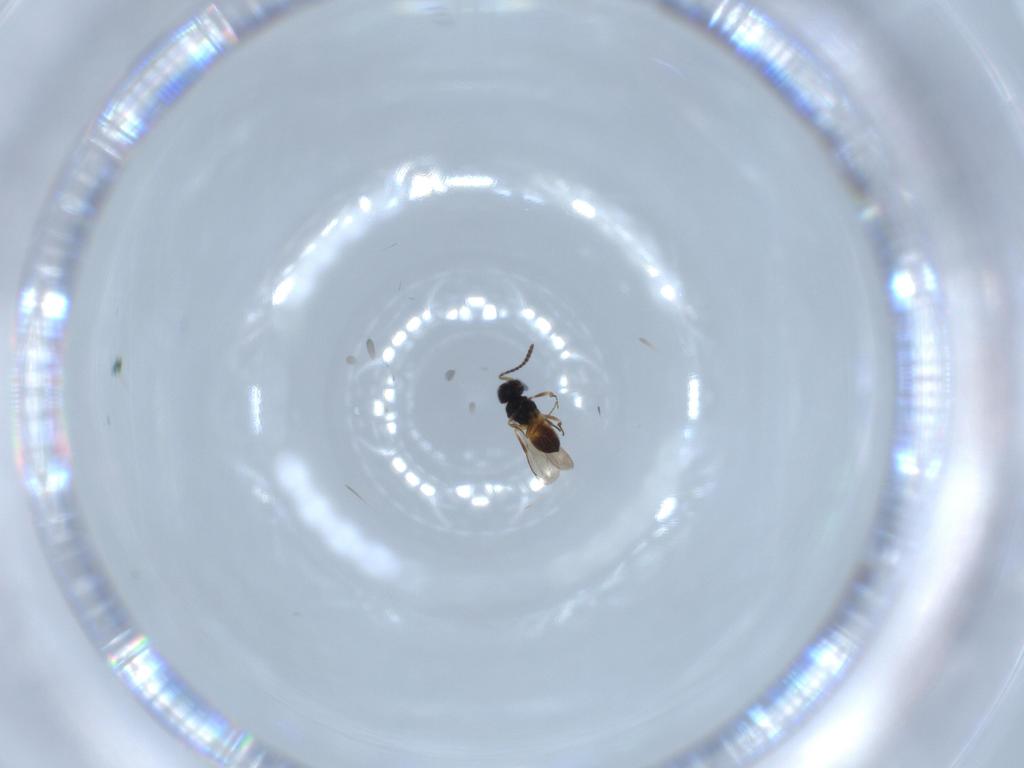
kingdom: Animalia
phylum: Arthropoda
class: Insecta
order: Hymenoptera
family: Scelionidae
